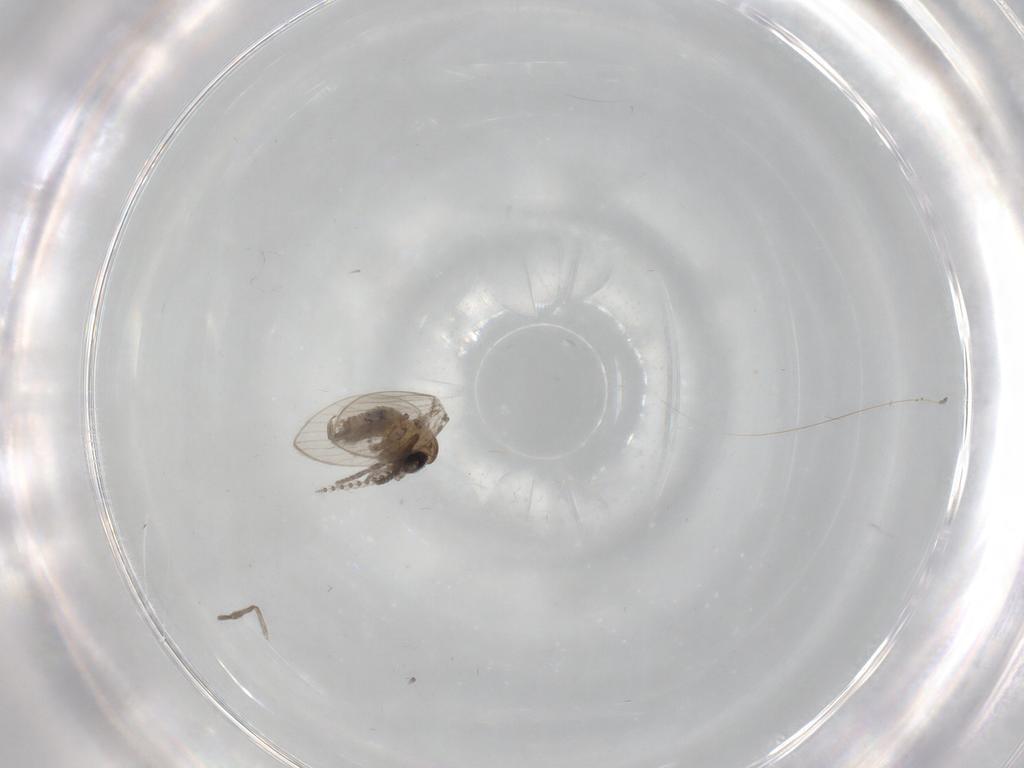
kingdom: Animalia
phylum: Arthropoda
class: Insecta
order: Diptera
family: Psychodidae
